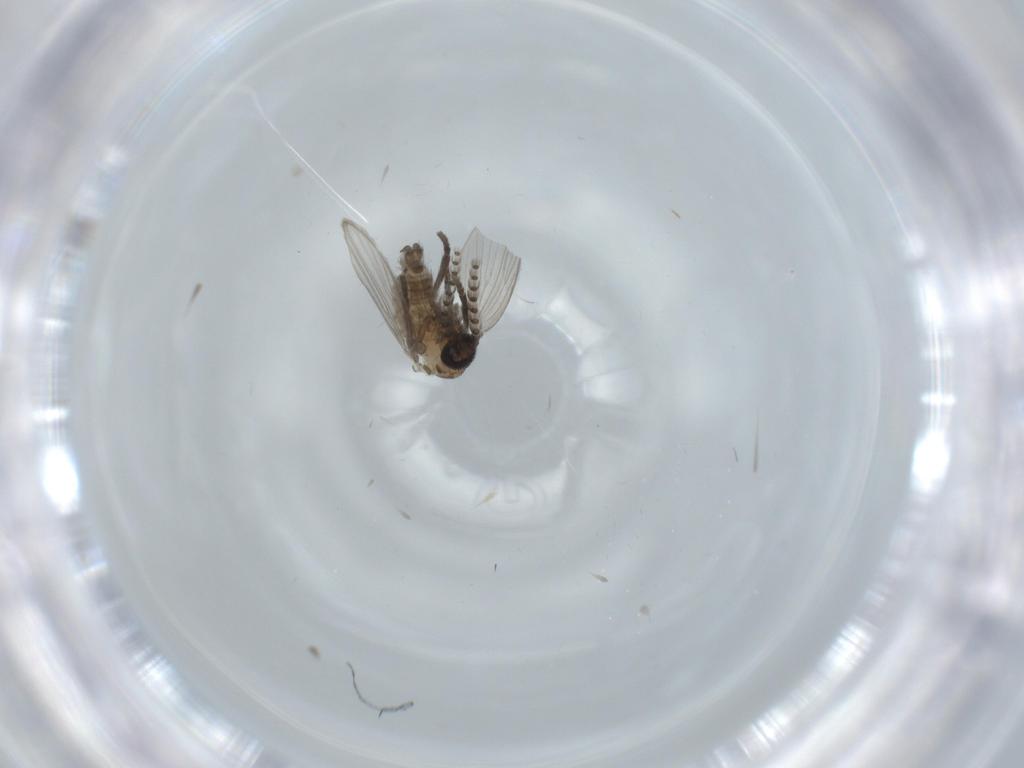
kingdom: Animalia
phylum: Arthropoda
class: Insecta
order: Diptera
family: Psychodidae
